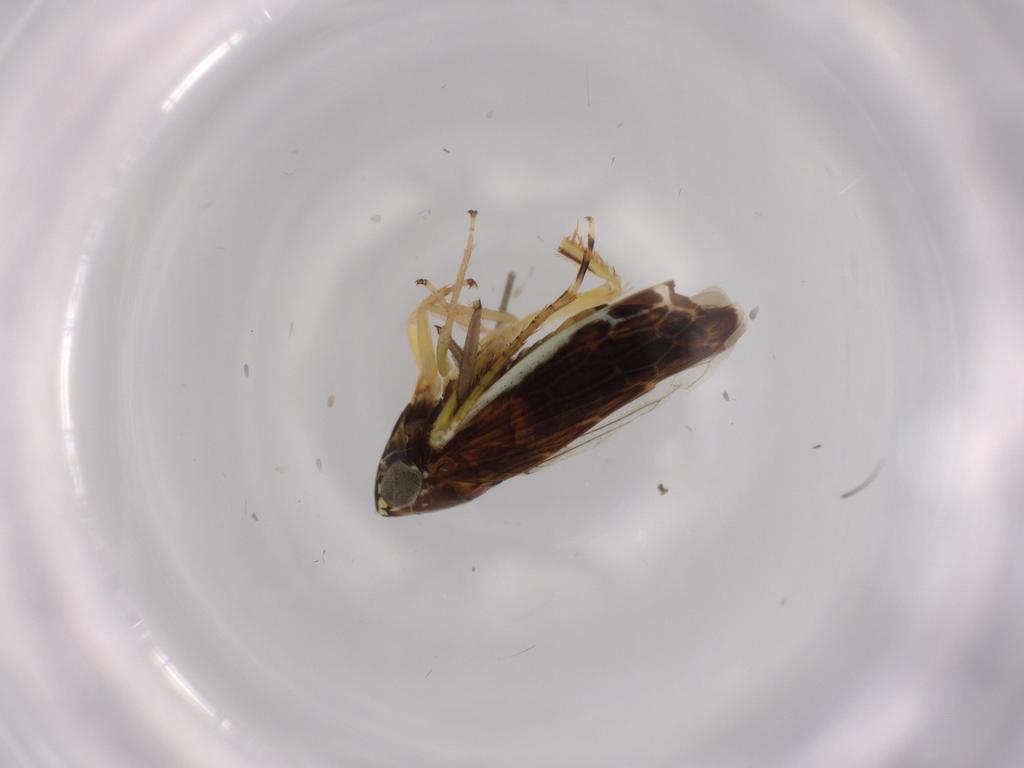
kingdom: Animalia
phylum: Arthropoda
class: Insecta
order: Hemiptera
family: Cicadellidae
